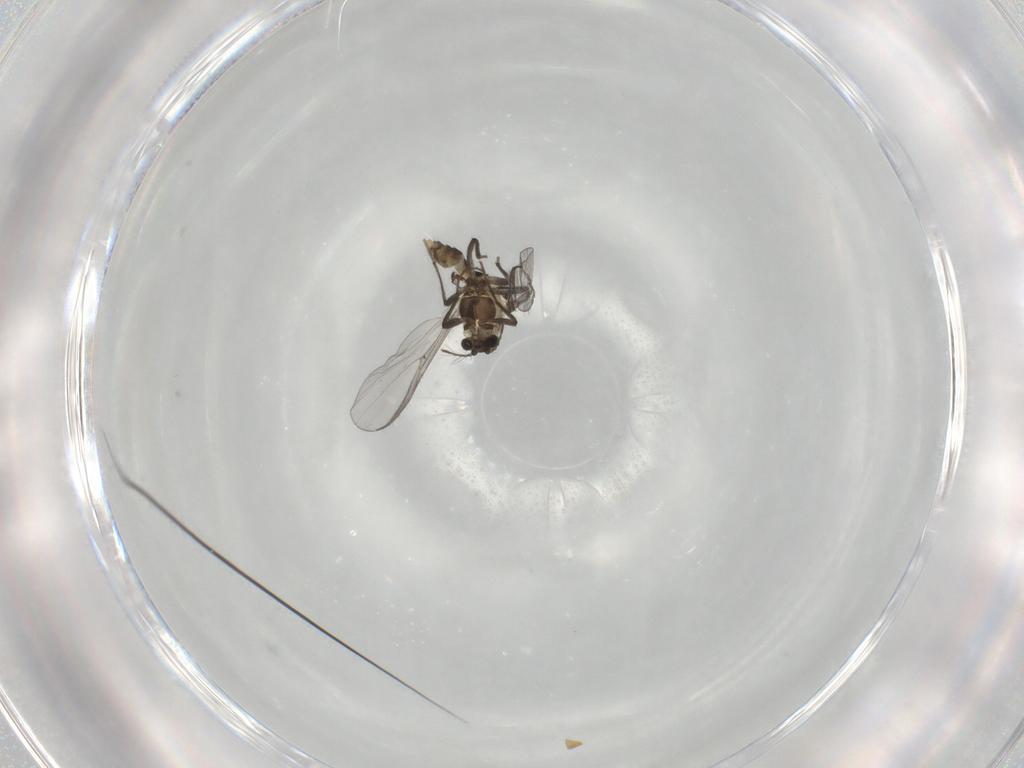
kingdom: Animalia
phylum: Arthropoda
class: Insecta
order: Diptera
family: Chironomidae
